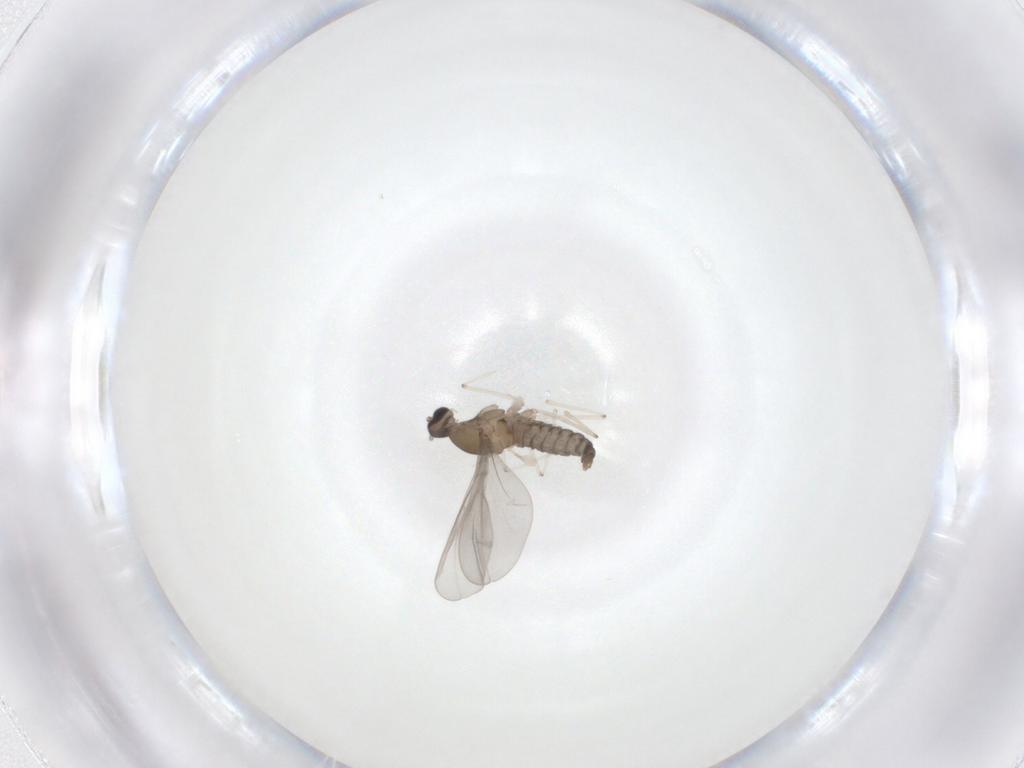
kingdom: Animalia
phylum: Arthropoda
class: Insecta
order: Diptera
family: Cecidomyiidae
